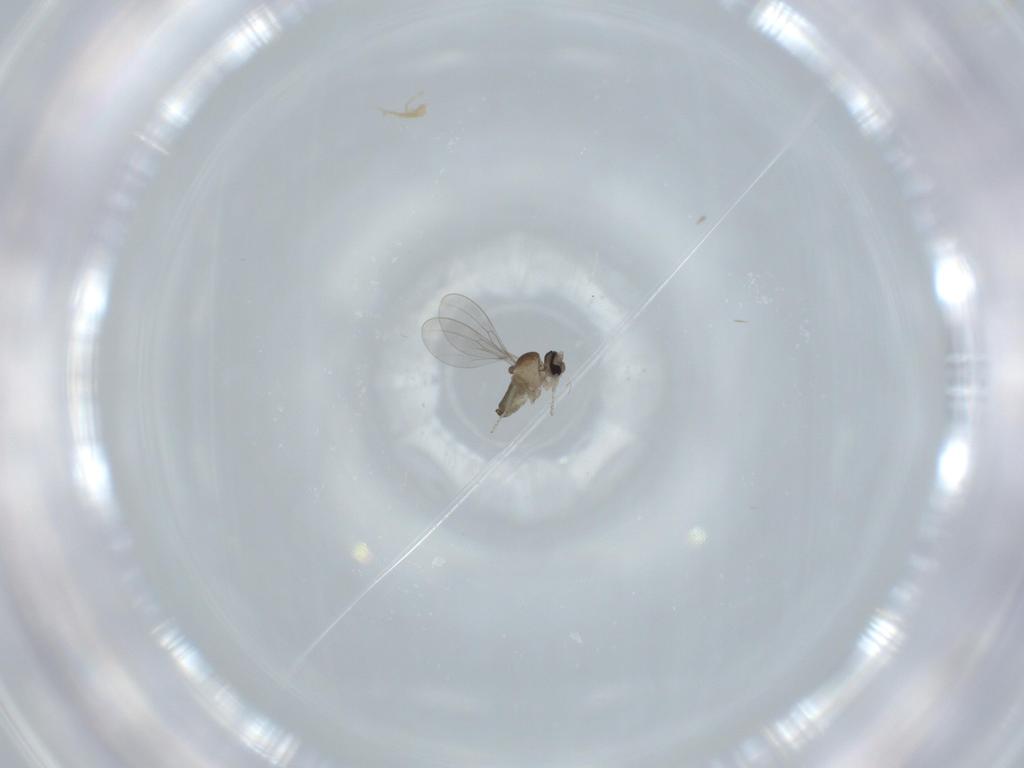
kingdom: Animalia
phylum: Arthropoda
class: Insecta
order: Diptera
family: Cecidomyiidae
